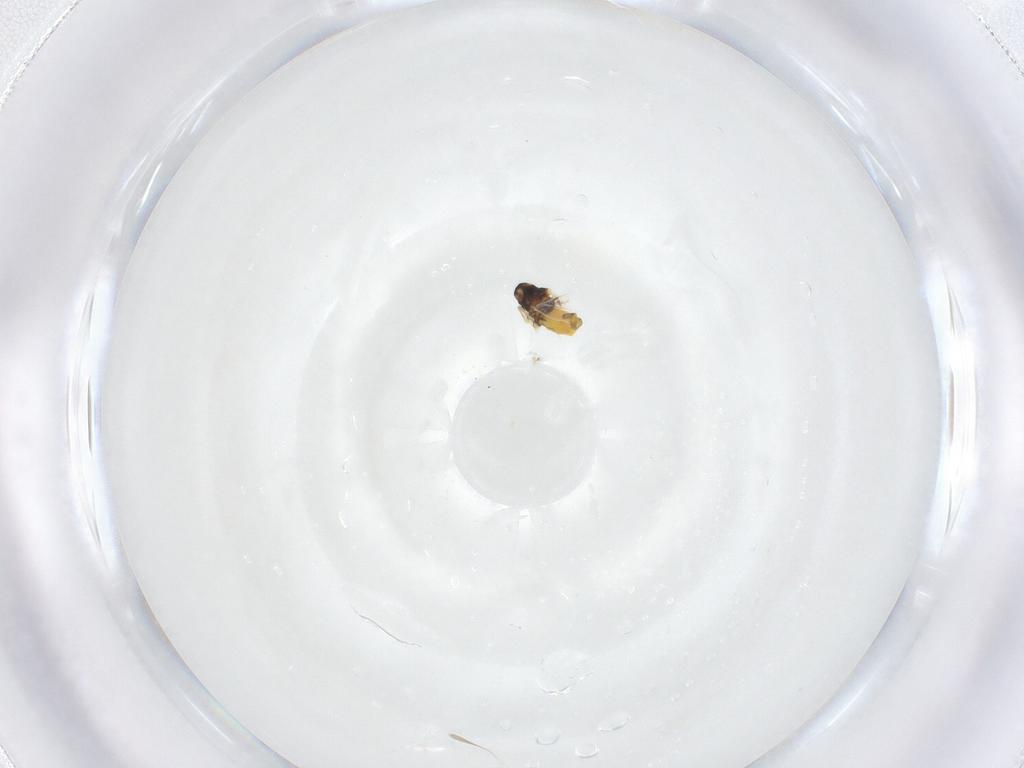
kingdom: Animalia
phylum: Arthropoda
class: Insecta
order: Hemiptera
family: Aleyrodidae
